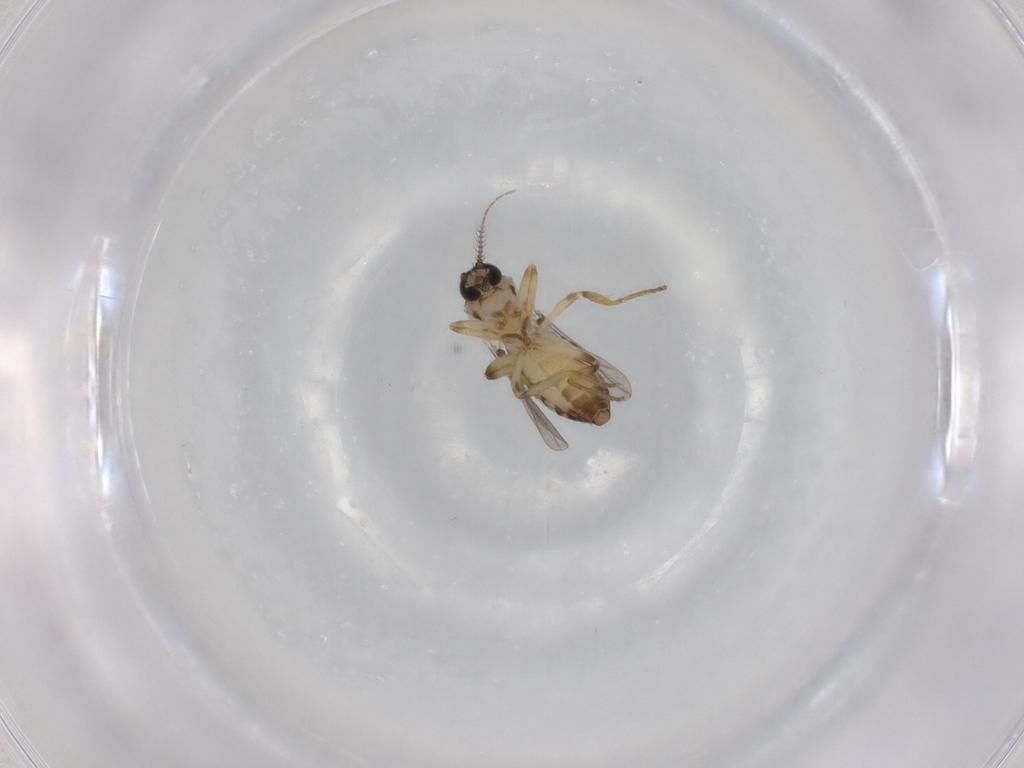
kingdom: Animalia
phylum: Arthropoda
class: Insecta
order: Diptera
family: Ceratopogonidae
